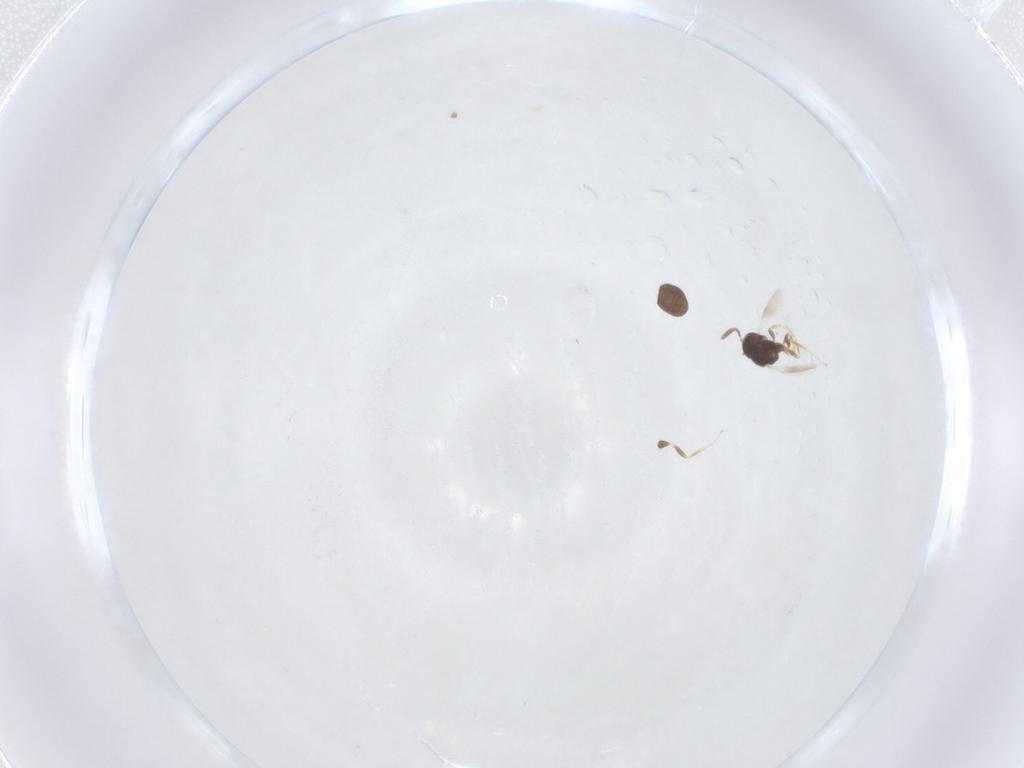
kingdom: Animalia
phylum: Arthropoda
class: Insecta
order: Hymenoptera
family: Scelionidae
